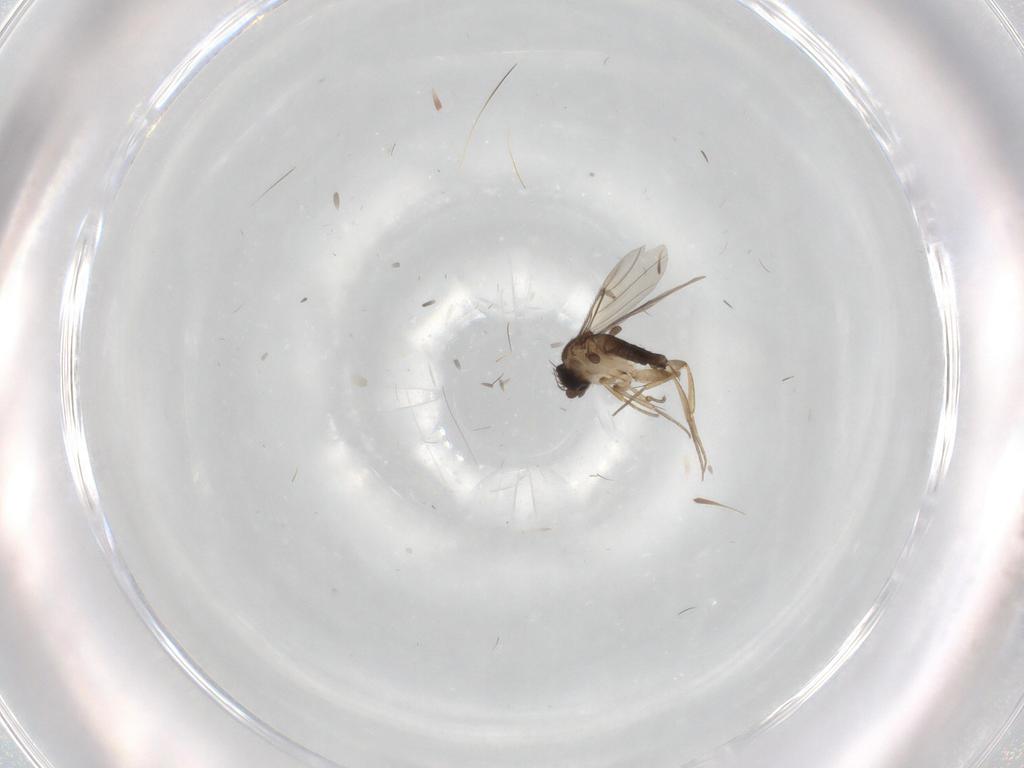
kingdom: Animalia
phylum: Arthropoda
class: Insecta
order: Diptera
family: Phoridae
